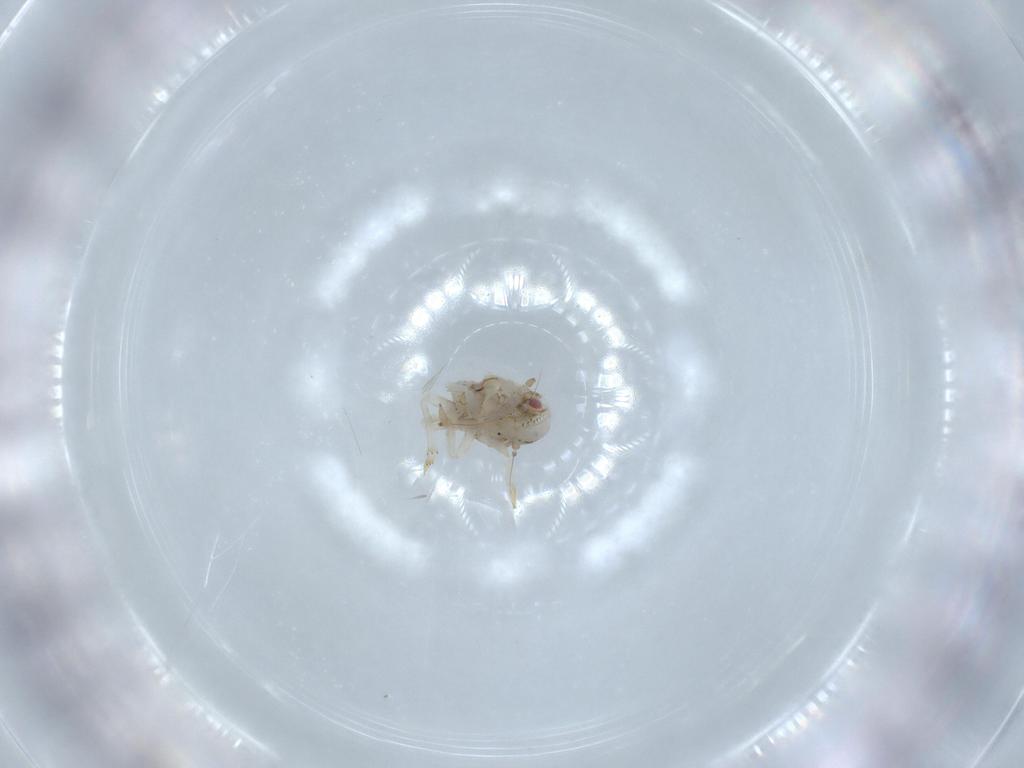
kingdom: Animalia
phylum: Arthropoda
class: Insecta
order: Hemiptera
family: Acanaloniidae
